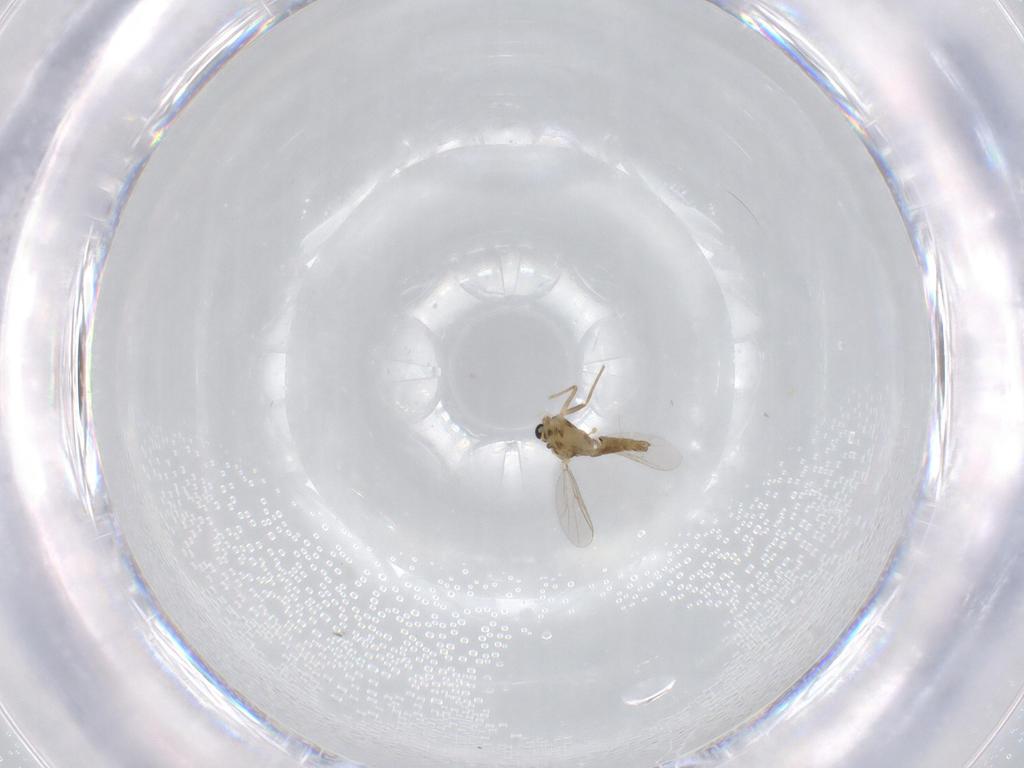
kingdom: Animalia
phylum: Arthropoda
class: Insecta
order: Diptera
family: Chironomidae
